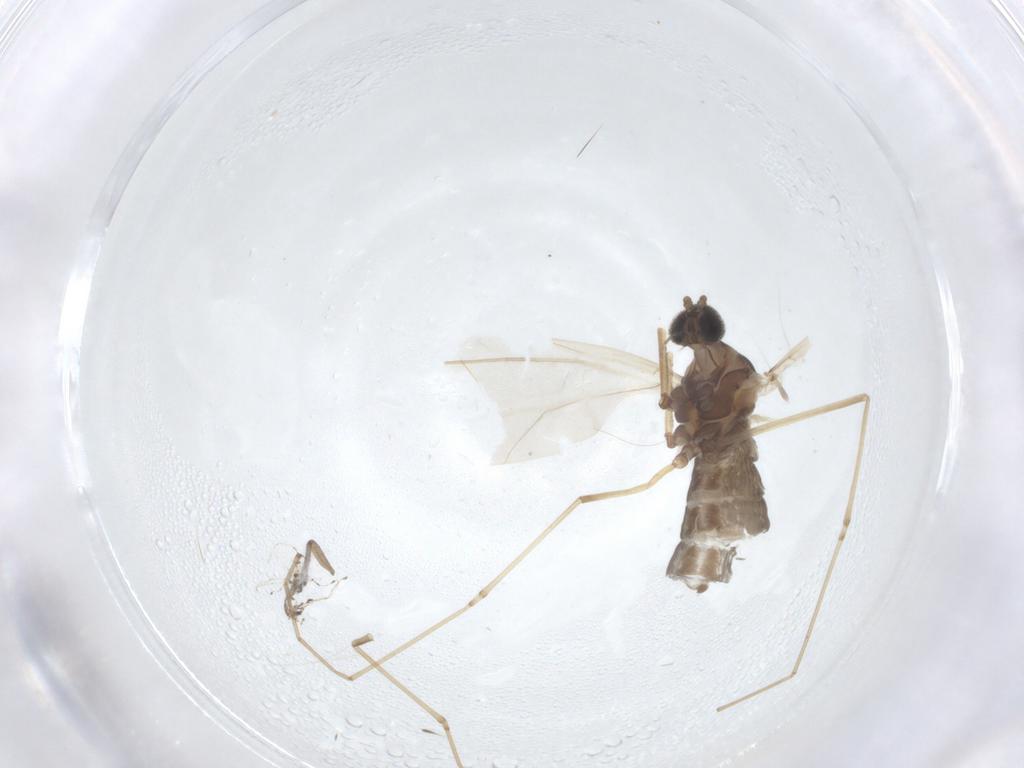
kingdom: Animalia
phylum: Arthropoda
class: Insecta
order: Diptera
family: Cecidomyiidae
